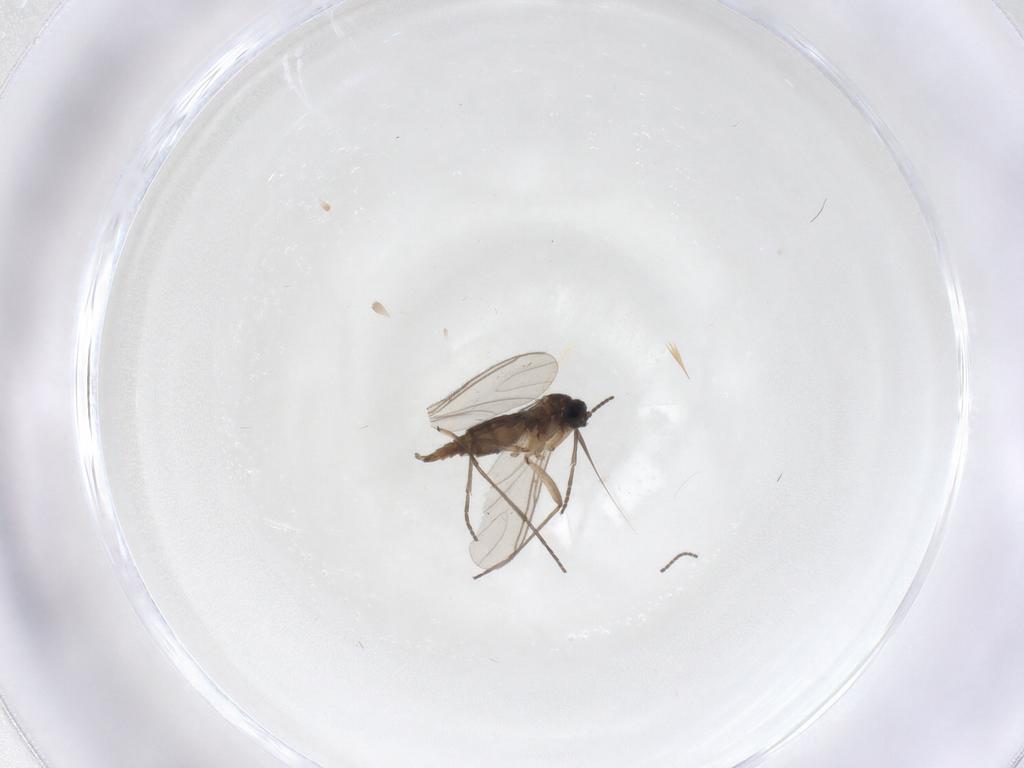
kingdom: Animalia
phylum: Arthropoda
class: Insecta
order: Diptera
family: Sciaridae
